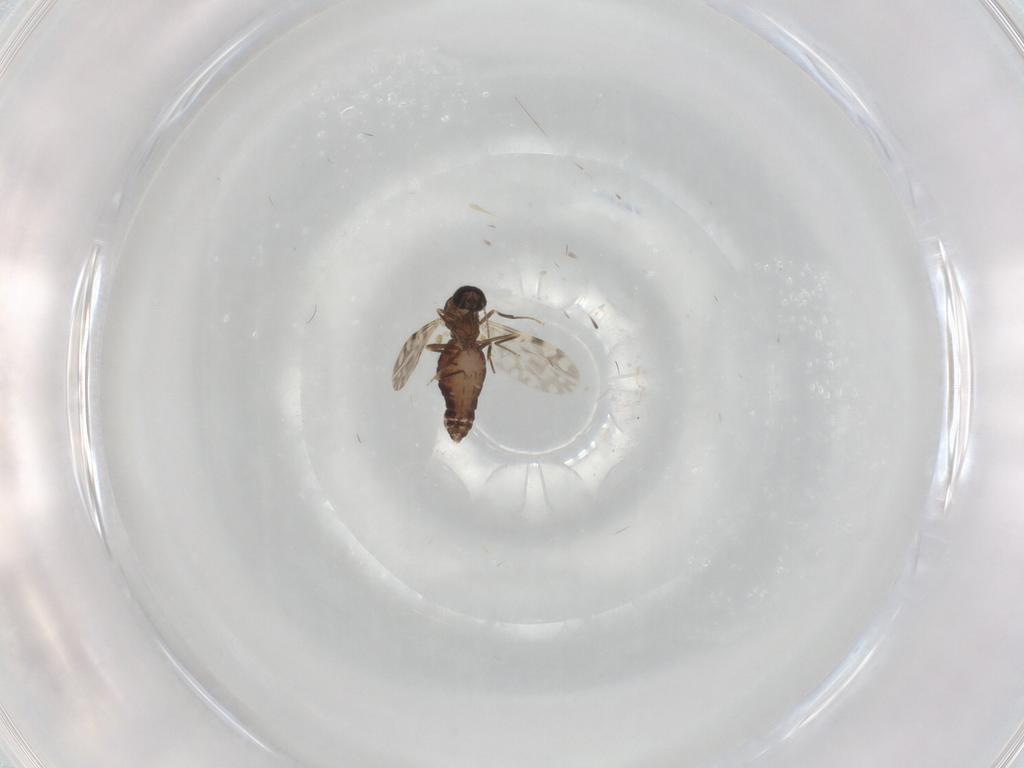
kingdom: Animalia
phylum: Arthropoda
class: Insecta
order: Diptera
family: Ceratopogonidae
